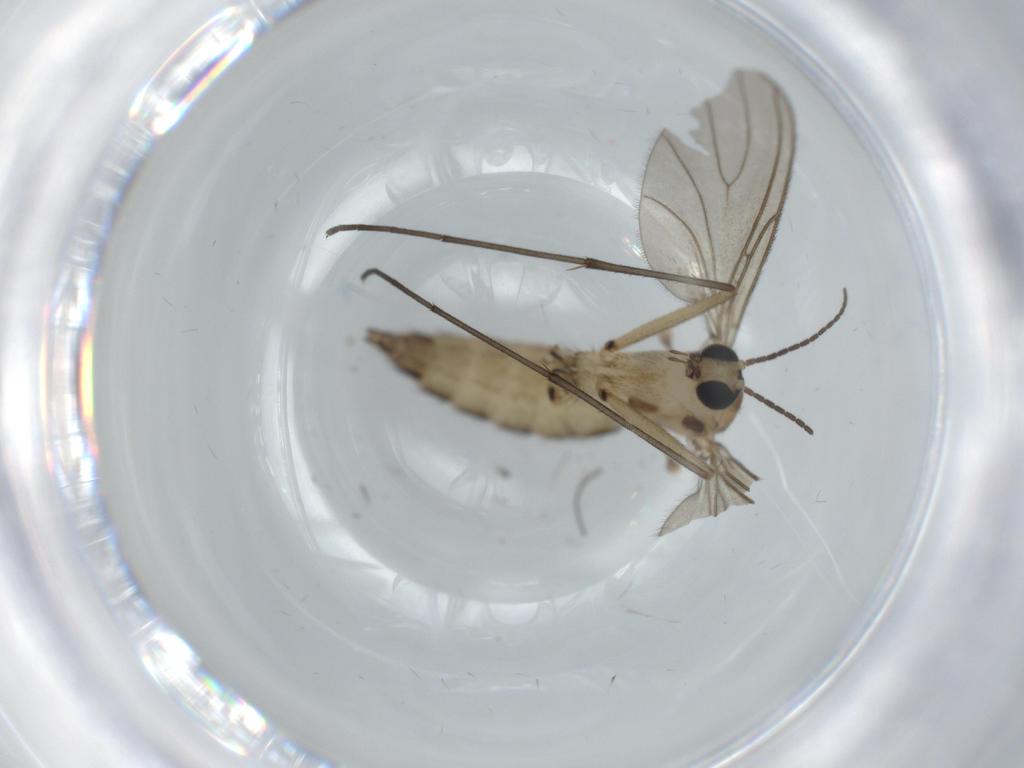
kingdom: Animalia
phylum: Arthropoda
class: Insecta
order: Diptera
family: Sciaridae
